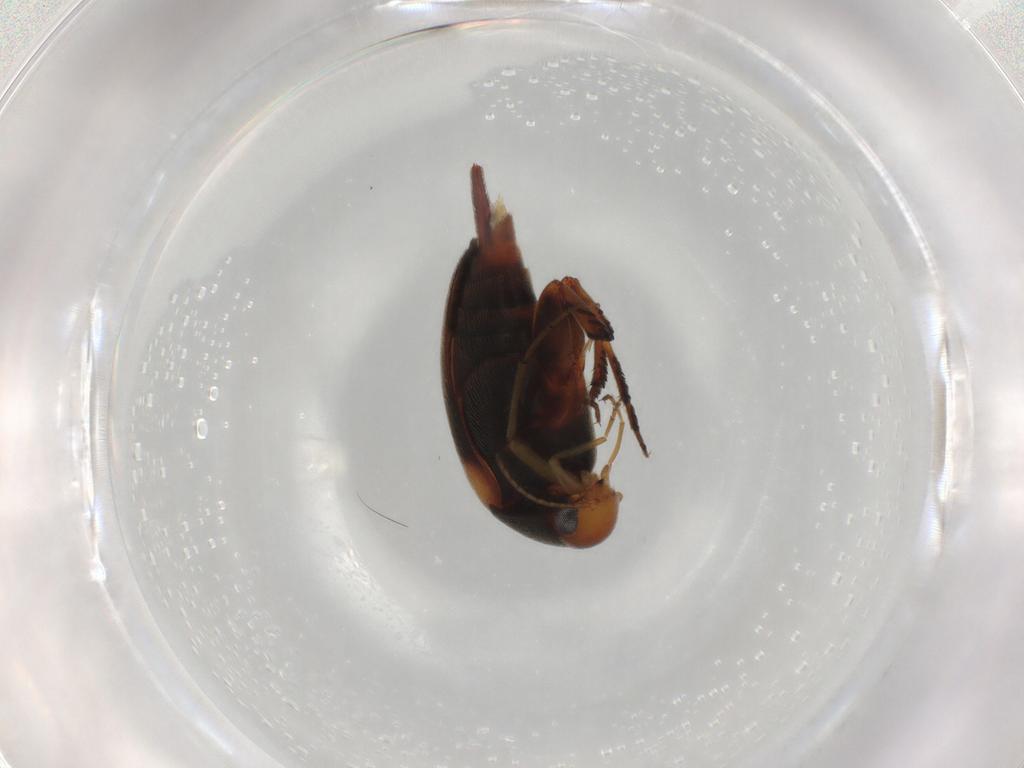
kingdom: Animalia
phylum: Arthropoda
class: Insecta
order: Coleoptera
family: Mordellidae
